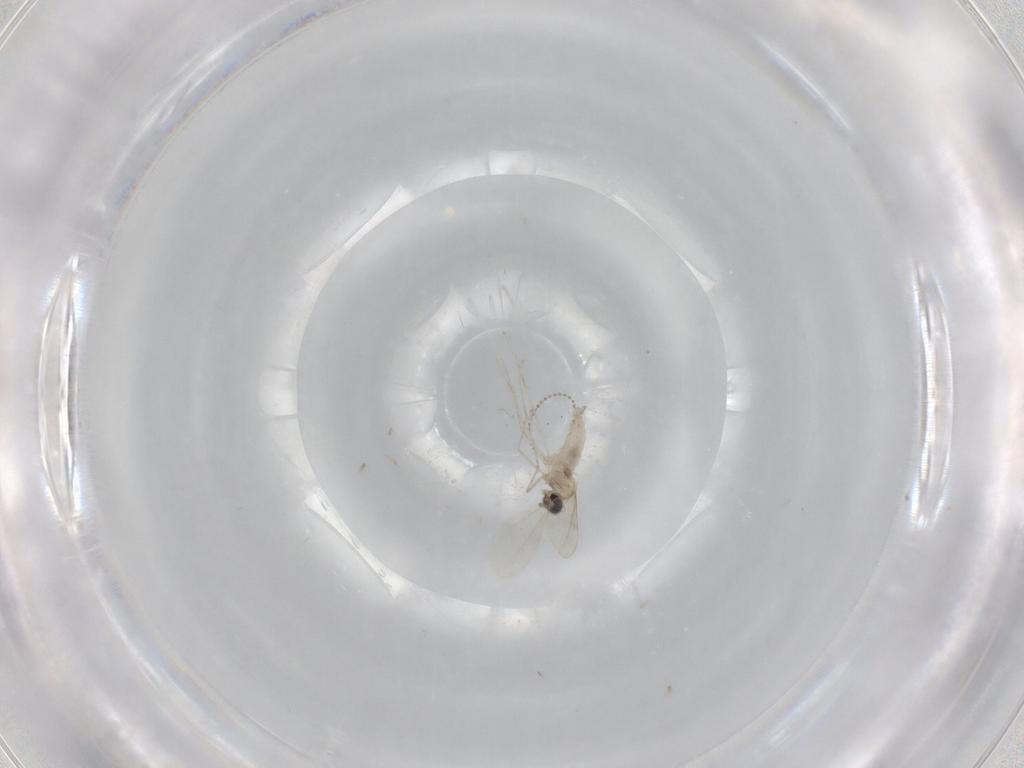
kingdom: Animalia
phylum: Arthropoda
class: Insecta
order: Diptera
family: Cecidomyiidae
